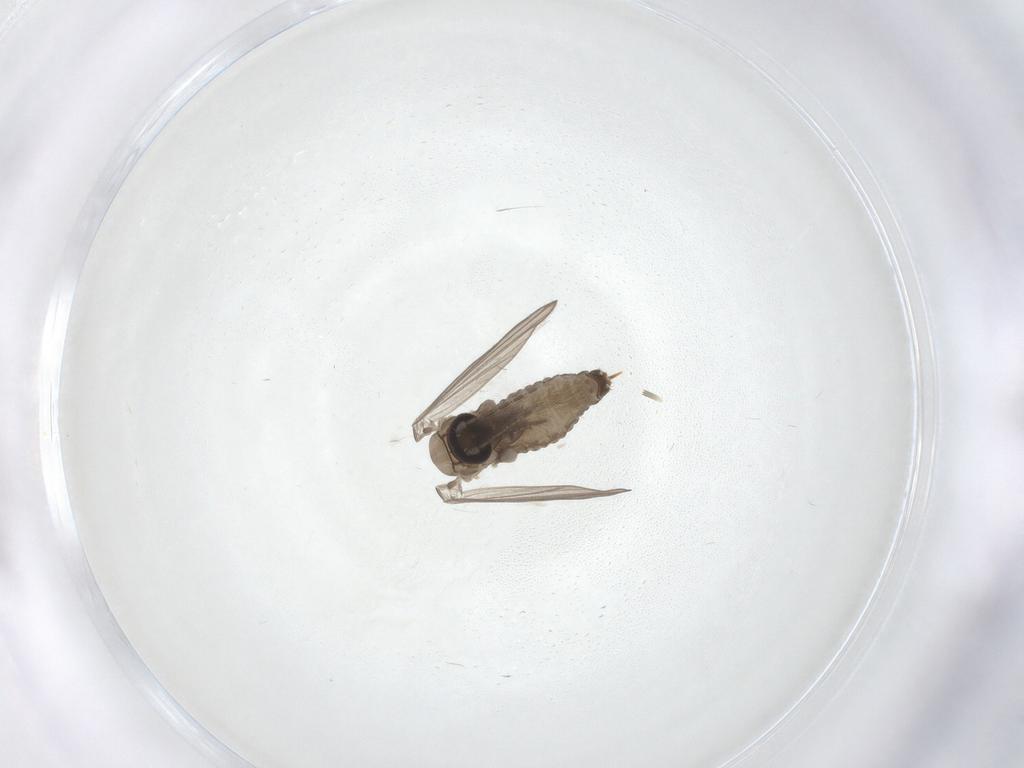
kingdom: Animalia
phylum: Arthropoda
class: Insecta
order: Diptera
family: Psychodidae
